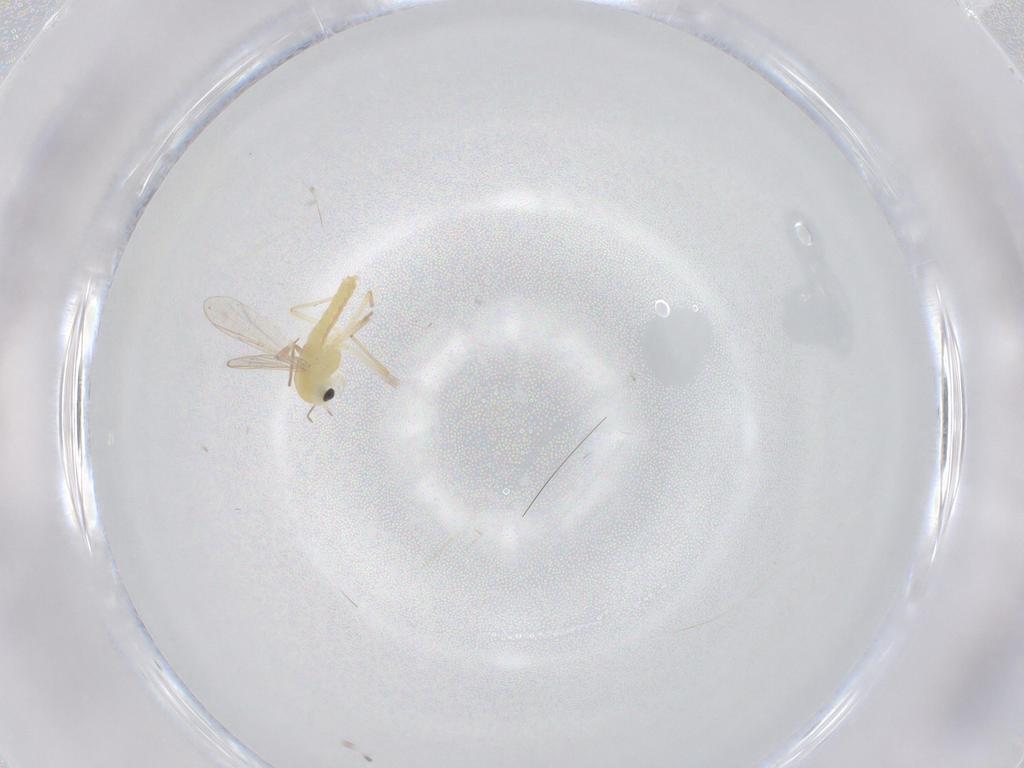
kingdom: Animalia
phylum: Arthropoda
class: Insecta
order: Diptera
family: Chironomidae
